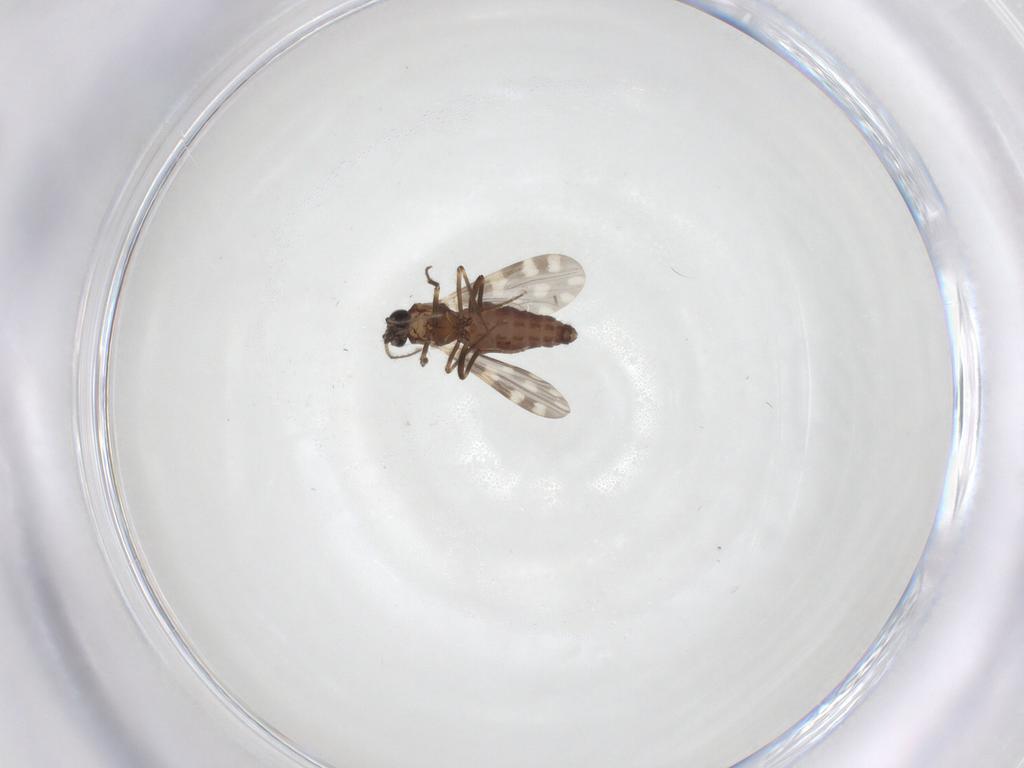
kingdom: Animalia
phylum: Arthropoda
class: Insecta
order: Diptera
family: Ceratopogonidae
